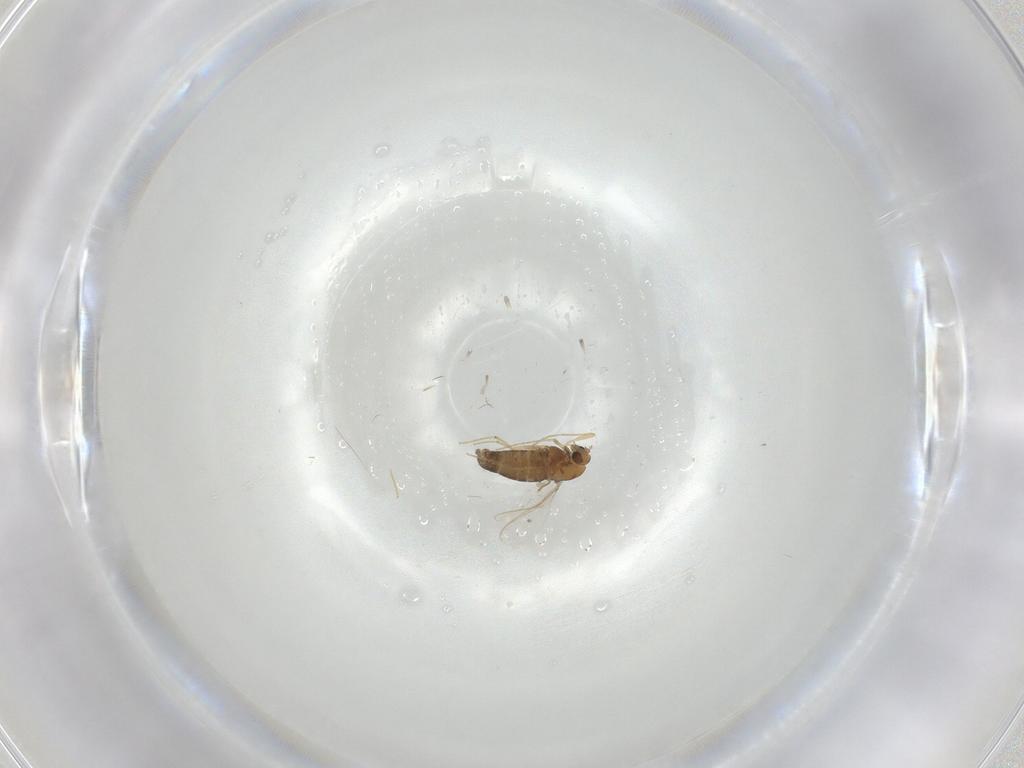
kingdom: Animalia
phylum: Arthropoda
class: Insecta
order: Diptera
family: Chironomidae
